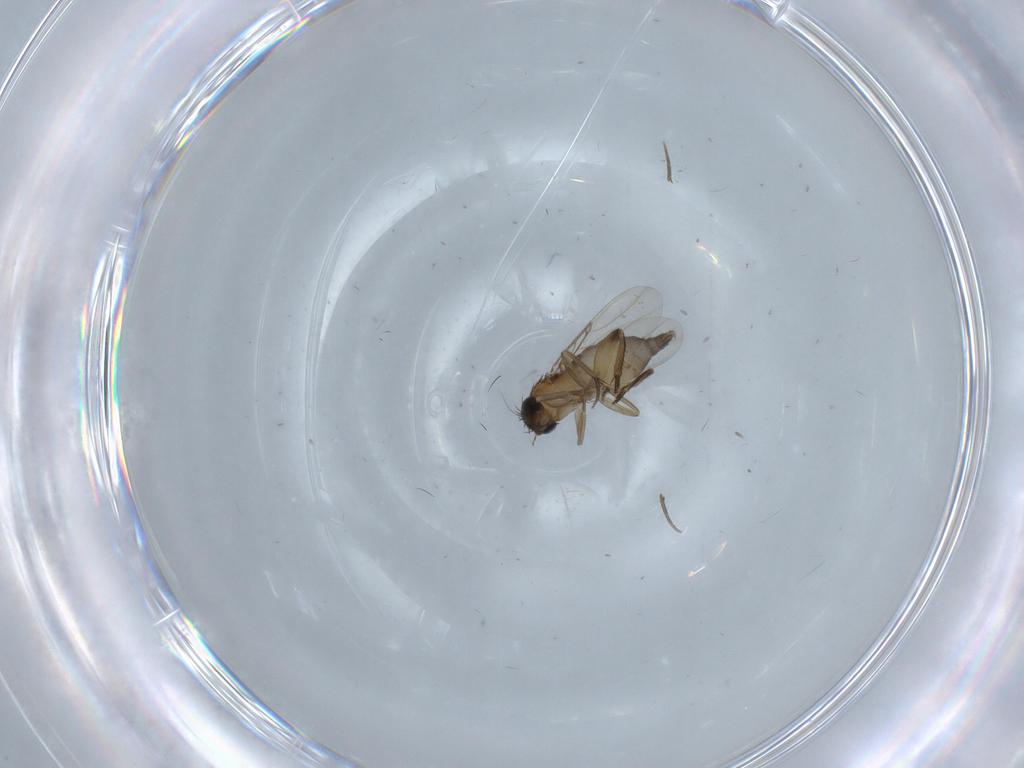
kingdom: Animalia
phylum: Arthropoda
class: Insecta
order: Diptera
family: Phoridae
